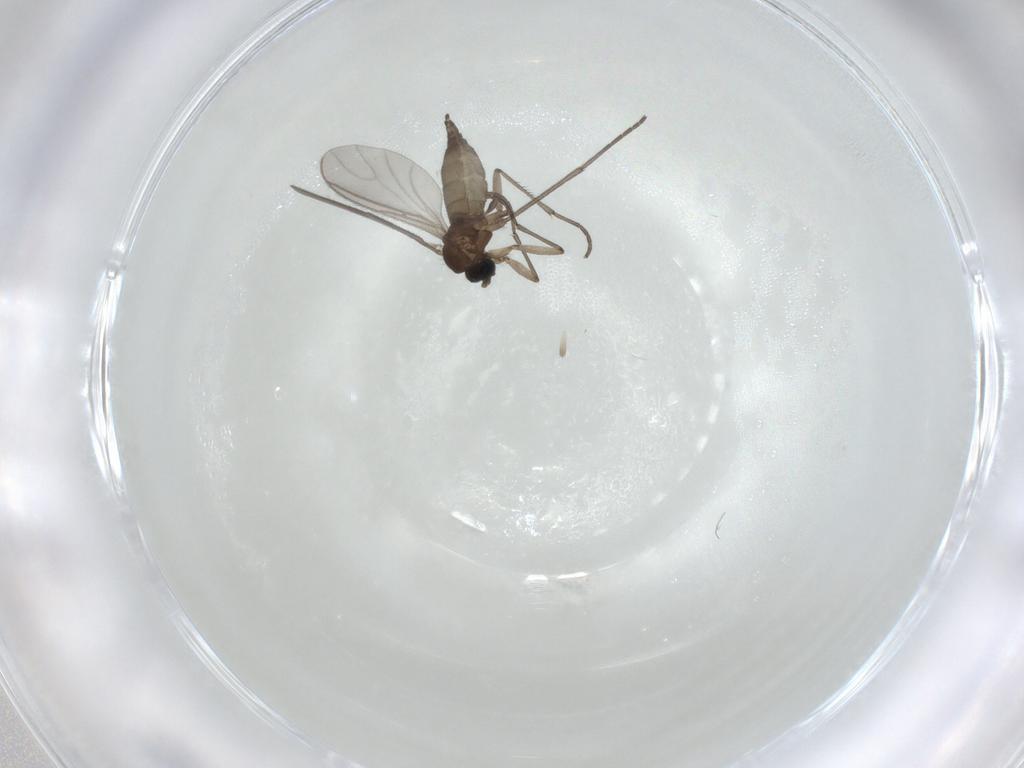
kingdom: Animalia
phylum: Arthropoda
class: Insecta
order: Diptera
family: Sciaridae
